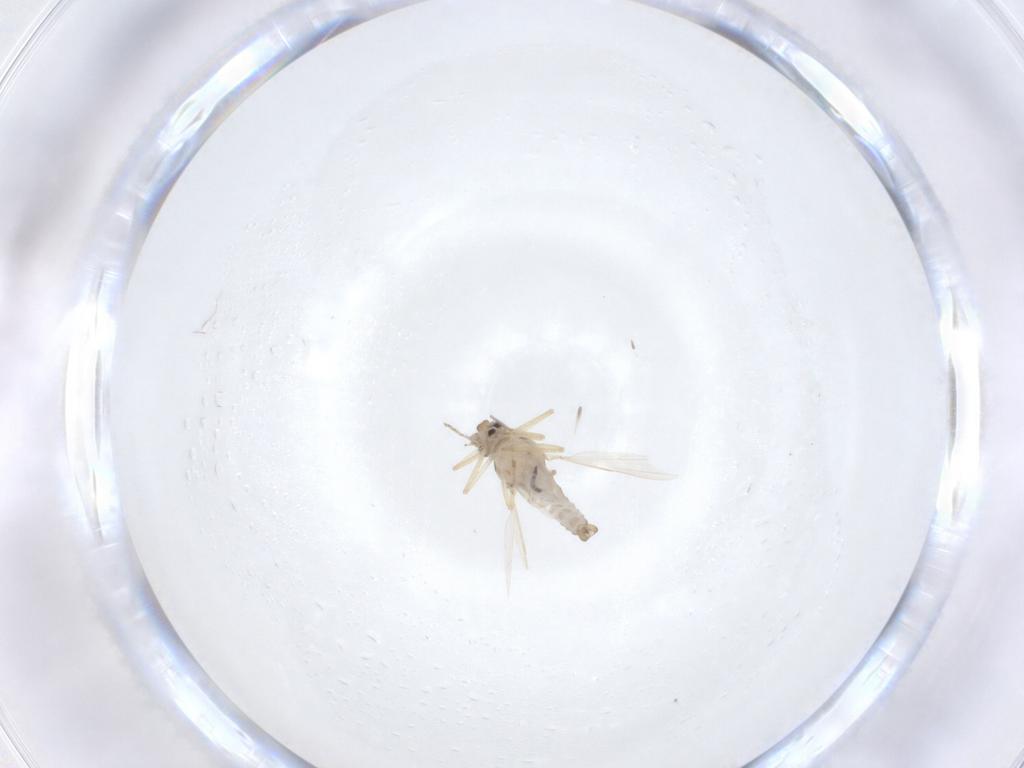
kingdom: Animalia
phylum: Arthropoda
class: Insecta
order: Diptera
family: Ceratopogonidae
